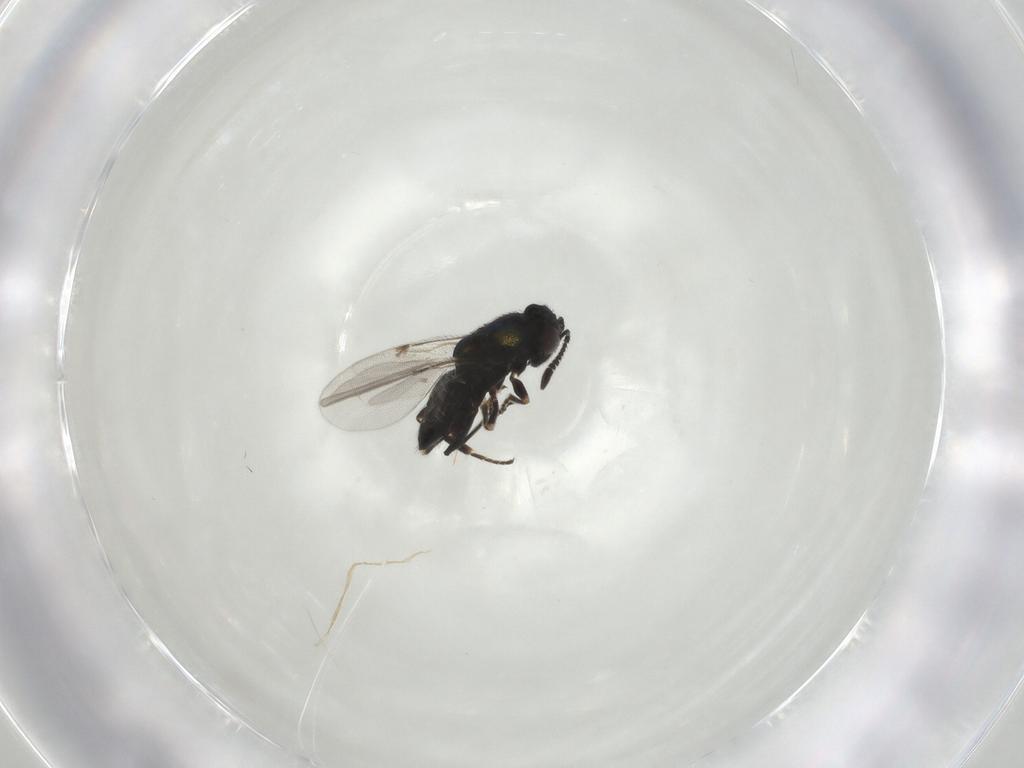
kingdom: Animalia
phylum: Arthropoda
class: Insecta
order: Hymenoptera
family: Encyrtidae
